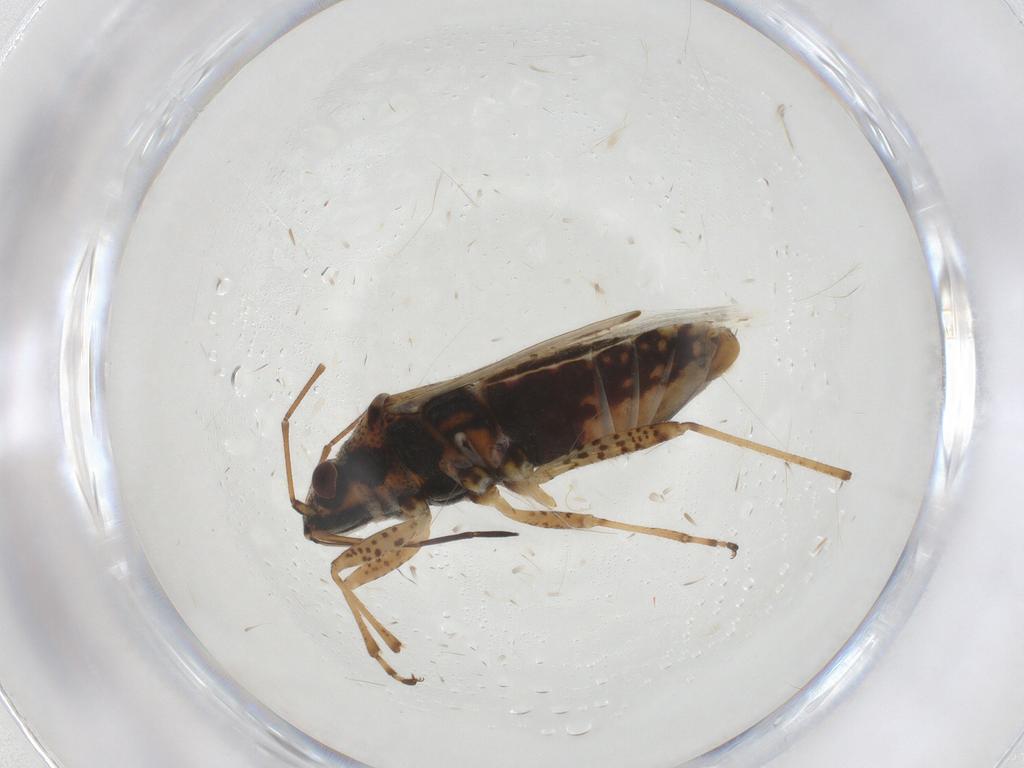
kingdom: Animalia
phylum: Arthropoda
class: Insecta
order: Hemiptera
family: Lygaeidae
